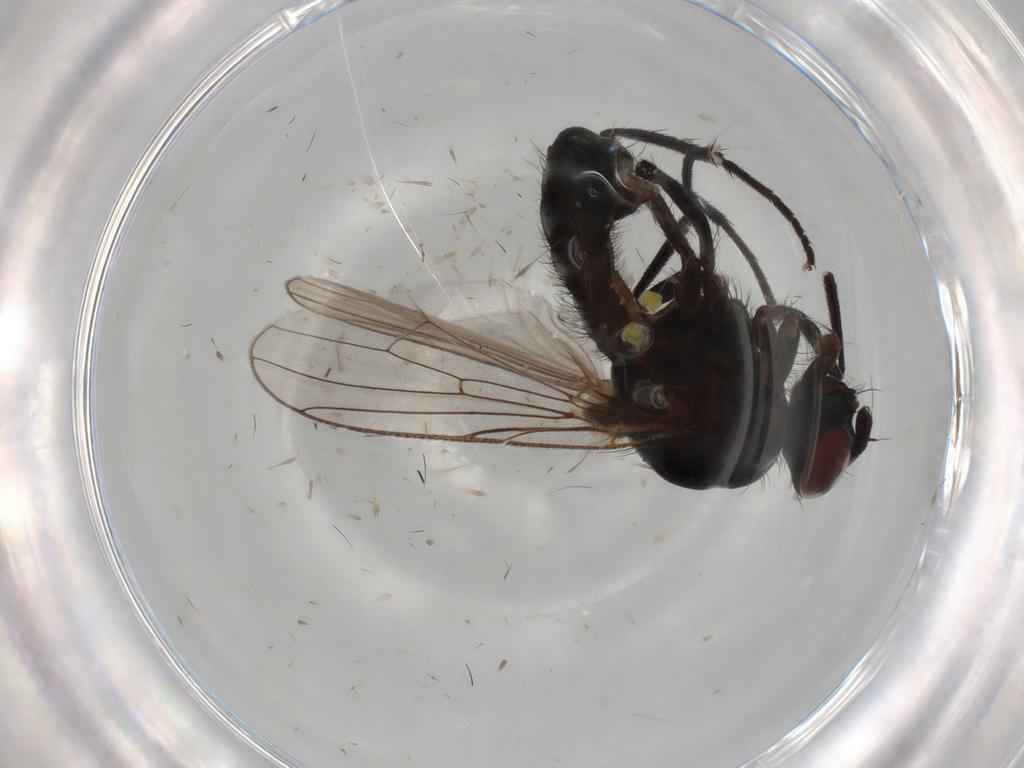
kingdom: Animalia
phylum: Arthropoda
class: Insecta
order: Diptera
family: Anthomyiidae
